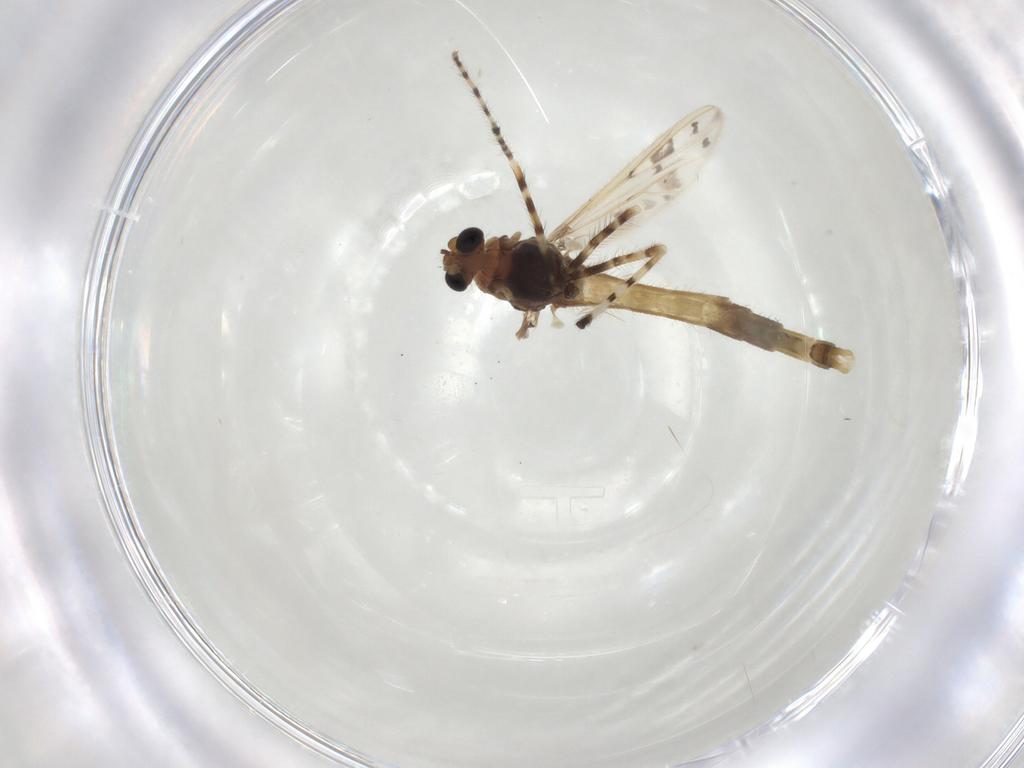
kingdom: Animalia
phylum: Arthropoda
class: Insecta
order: Diptera
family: Chironomidae
